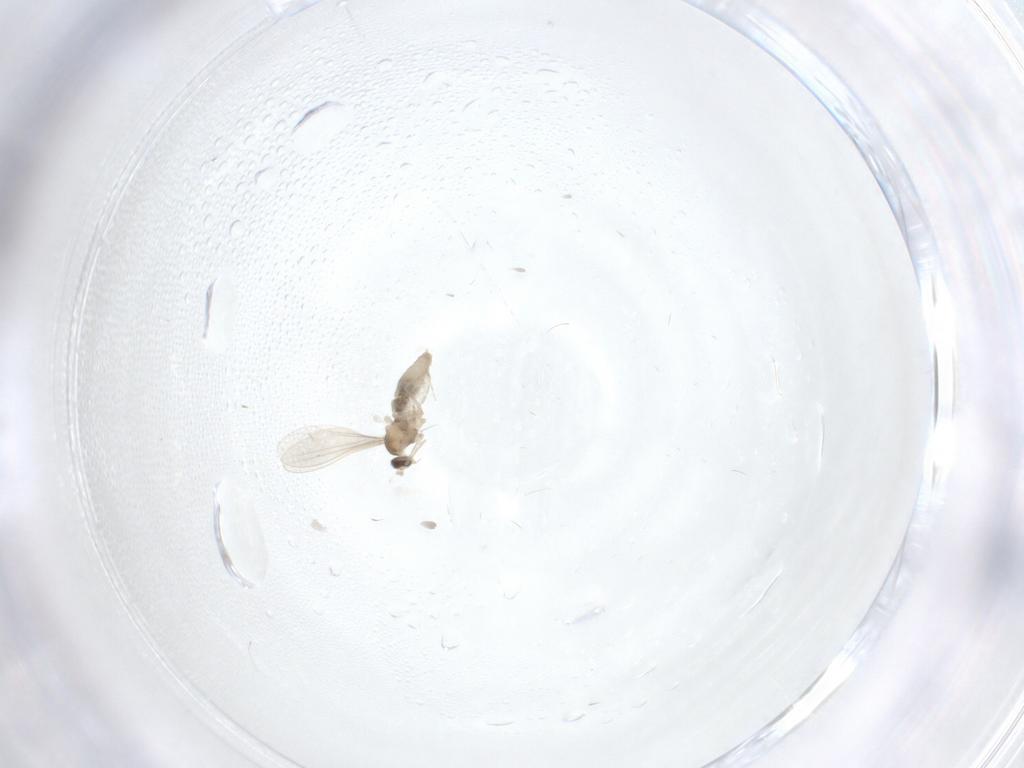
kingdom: Animalia
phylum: Arthropoda
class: Insecta
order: Diptera
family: Cecidomyiidae
